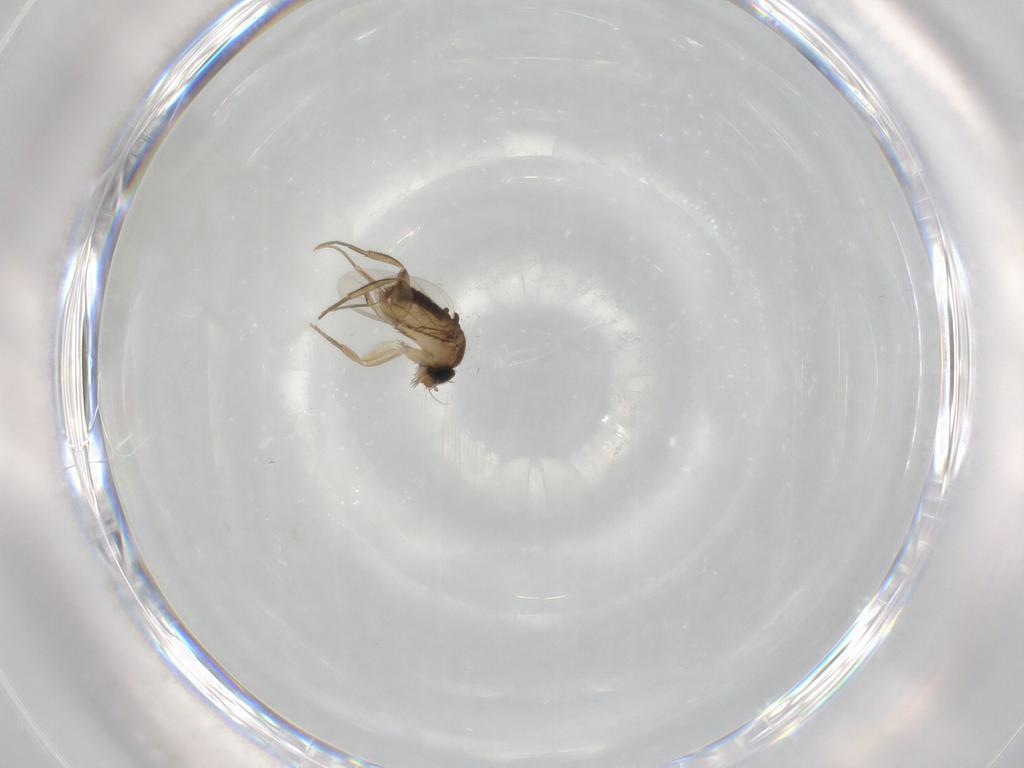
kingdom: Animalia
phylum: Arthropoda
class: Insecta
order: Diptera
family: Phoridae
